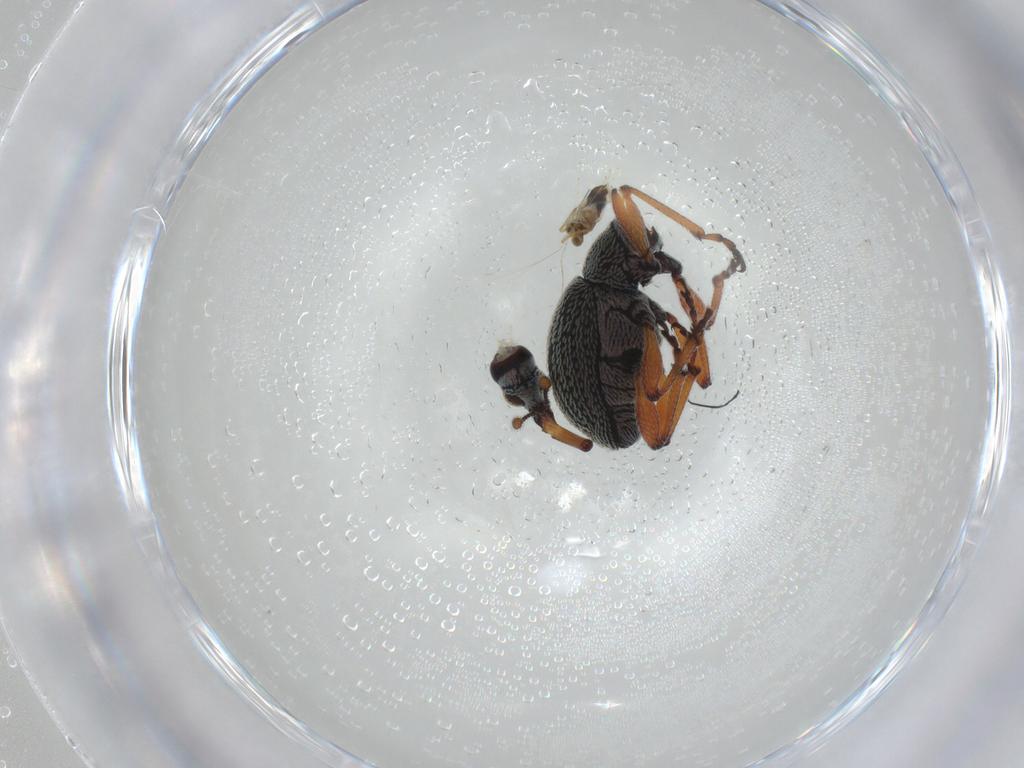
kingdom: Animalia
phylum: Arthropoda
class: Insecta
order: Coleoptera
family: Brentidae
